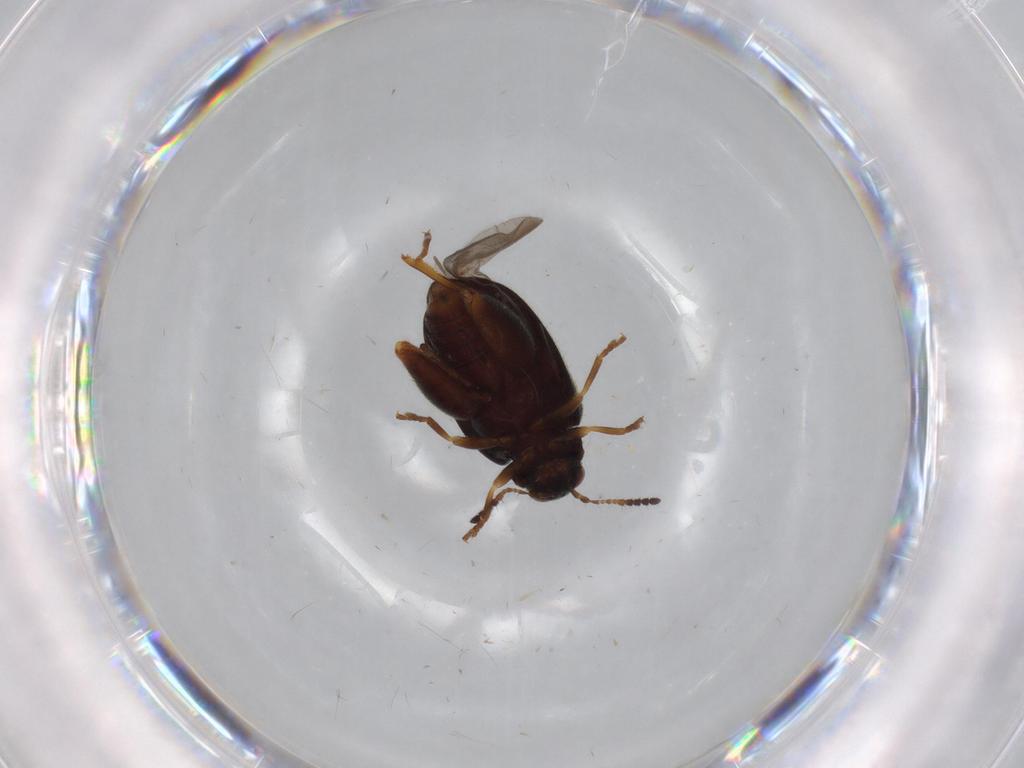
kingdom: Animalia
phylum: Arthropoda
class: Insecta
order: Coleoptera
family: Chrysomelidae
